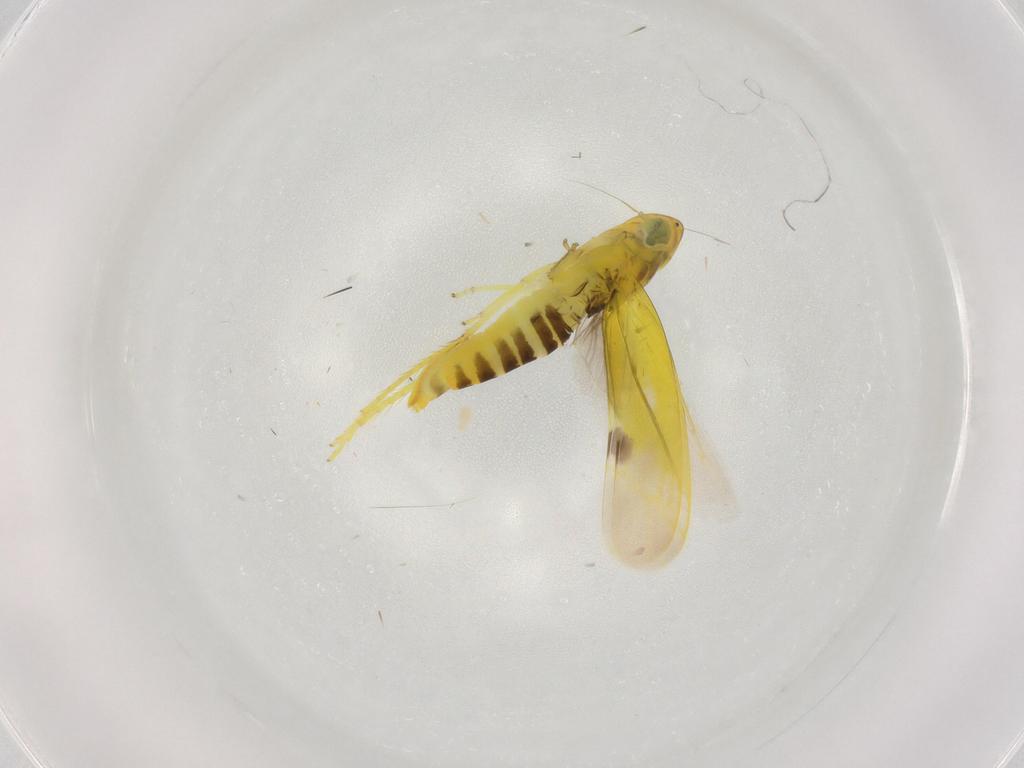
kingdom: Animalia
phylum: Arthropoda
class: Insecta
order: Hemiptera
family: Cicadellidae
